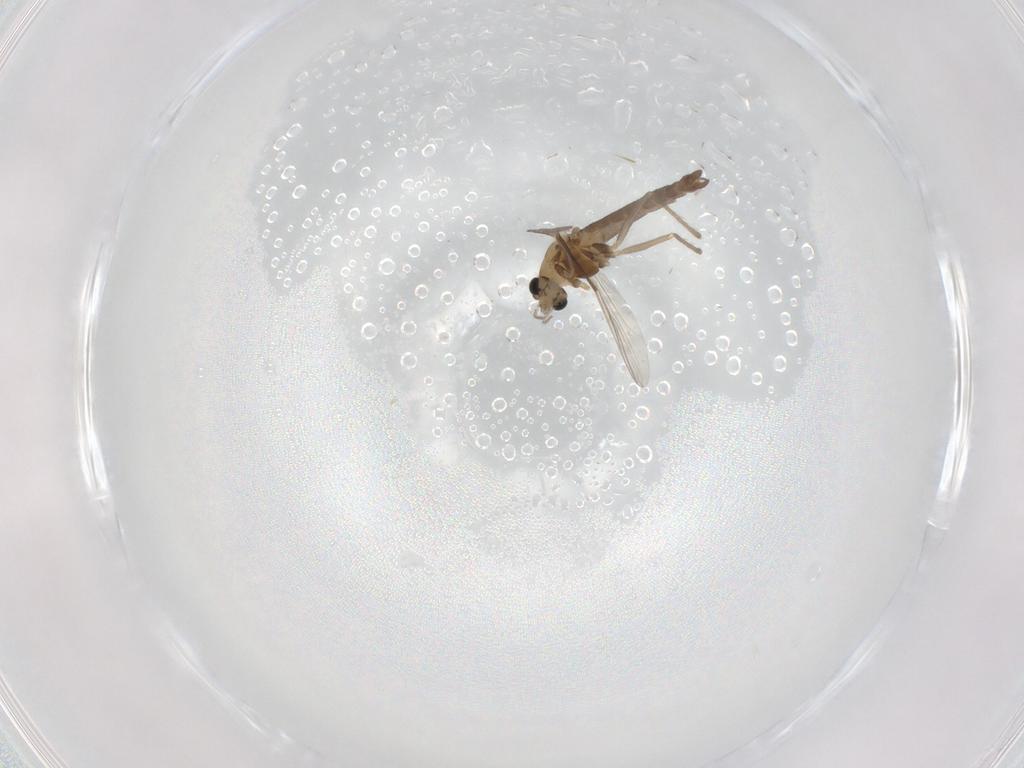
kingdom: Animalia
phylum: Arthropoda
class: Insecta
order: Diptera
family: Chironomidae
